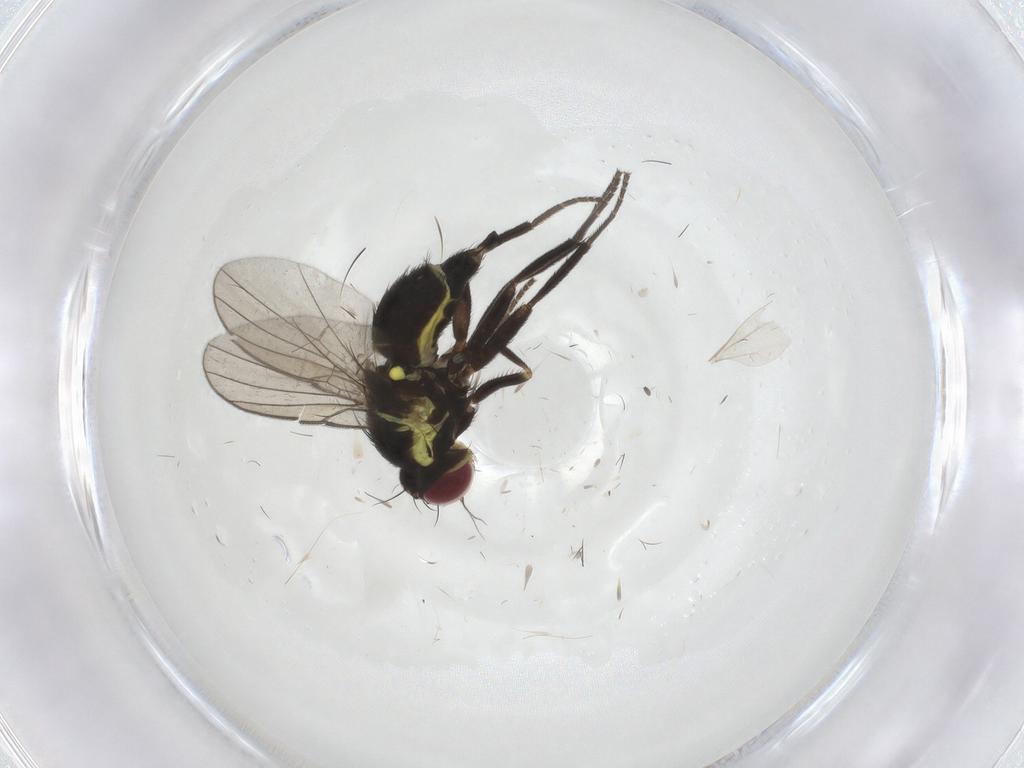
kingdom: Animalia
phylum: Arthropoda
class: Insecta
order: Diptera
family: Agromyzidae
